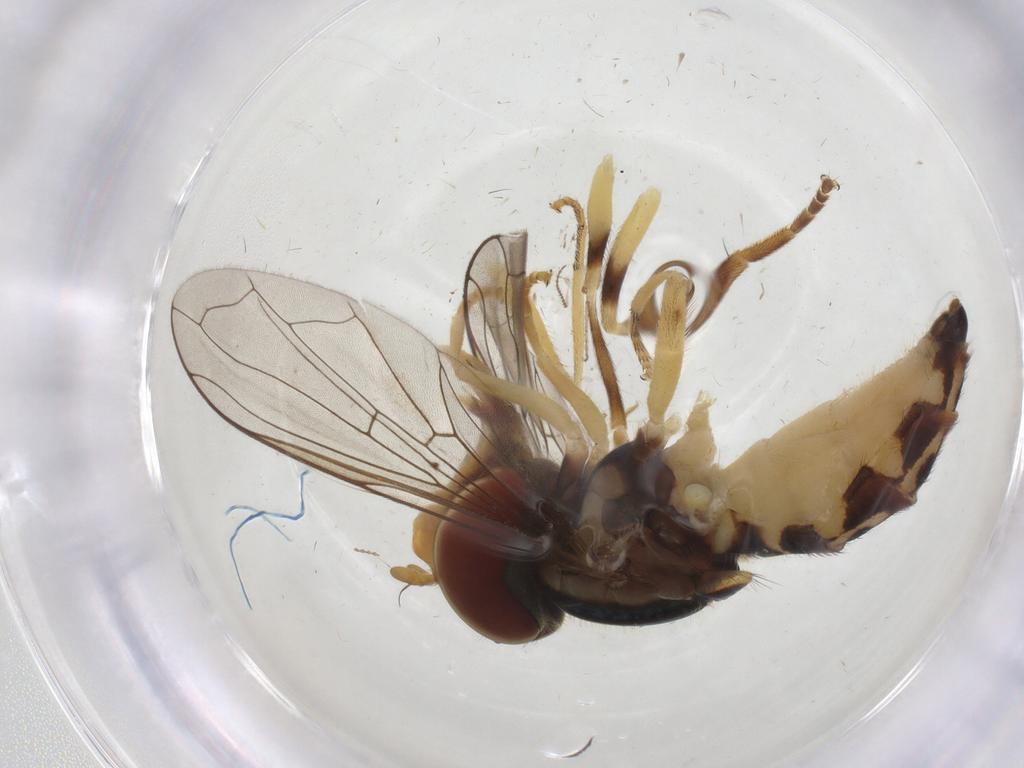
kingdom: Animalia
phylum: Arthropoda
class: Insecta
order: Diptera
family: Syrphidae
